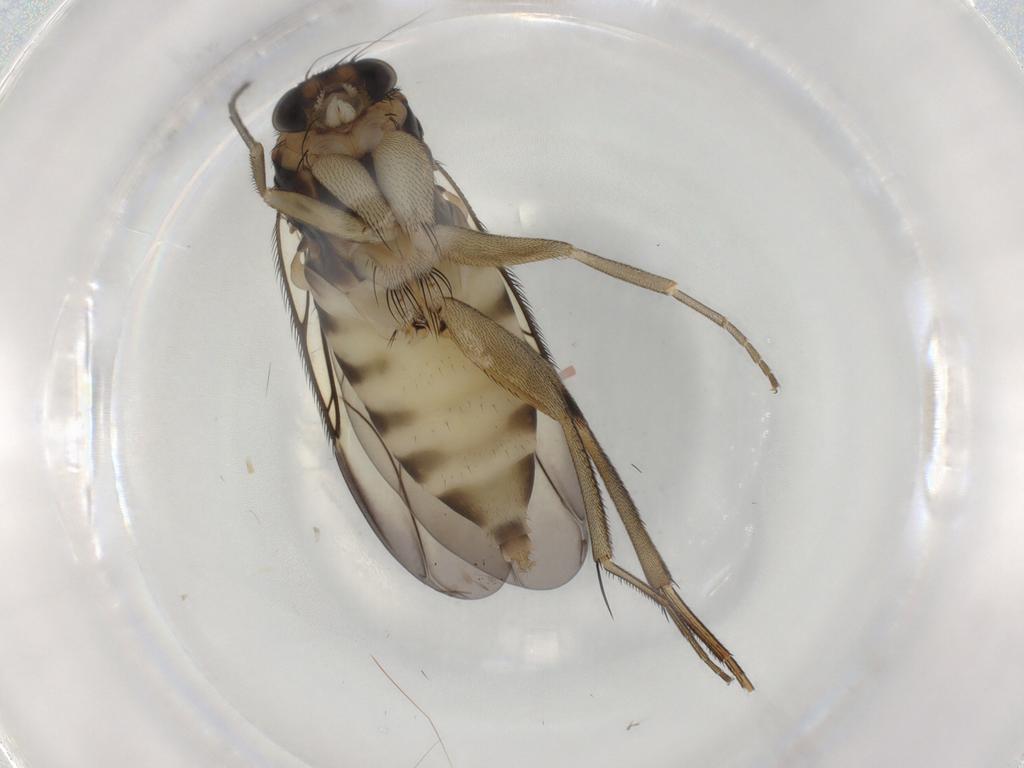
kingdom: Animalia
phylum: Arthropoda
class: Insecta
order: Diptera
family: Phoridae
